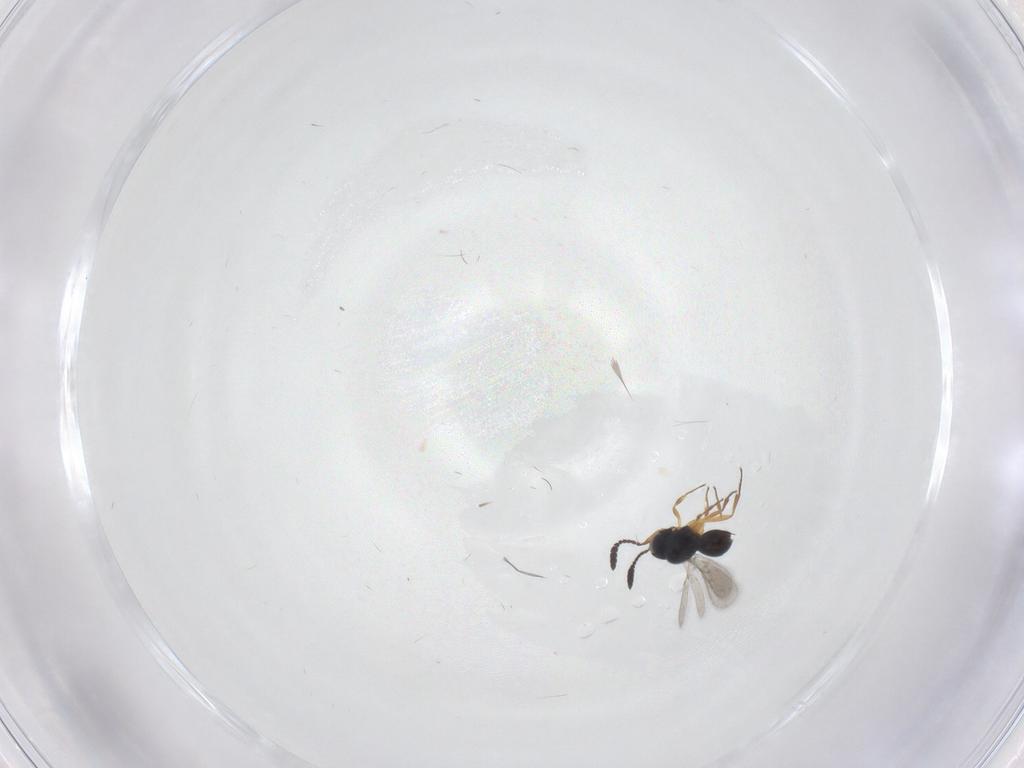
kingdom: Animalia
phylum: Arthropoda
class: Insecta
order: Hymenoptera
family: Scelionidae
